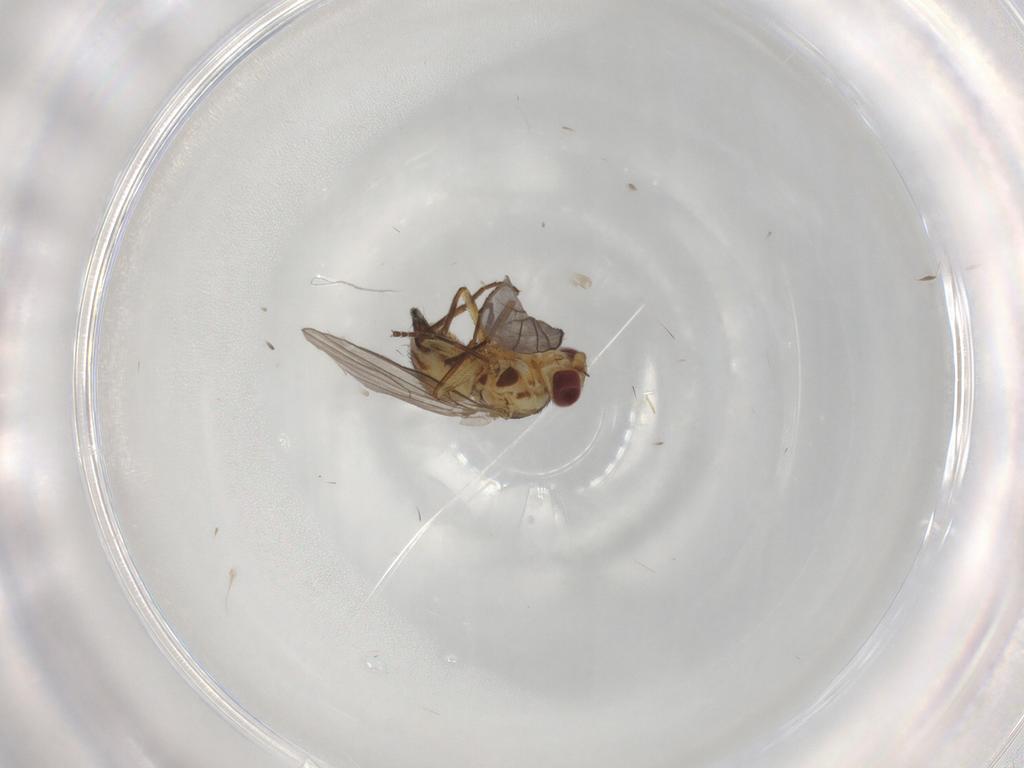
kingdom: Animalia
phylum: Arthropoda
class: Insecta
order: Diptera
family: Agromyzidae
